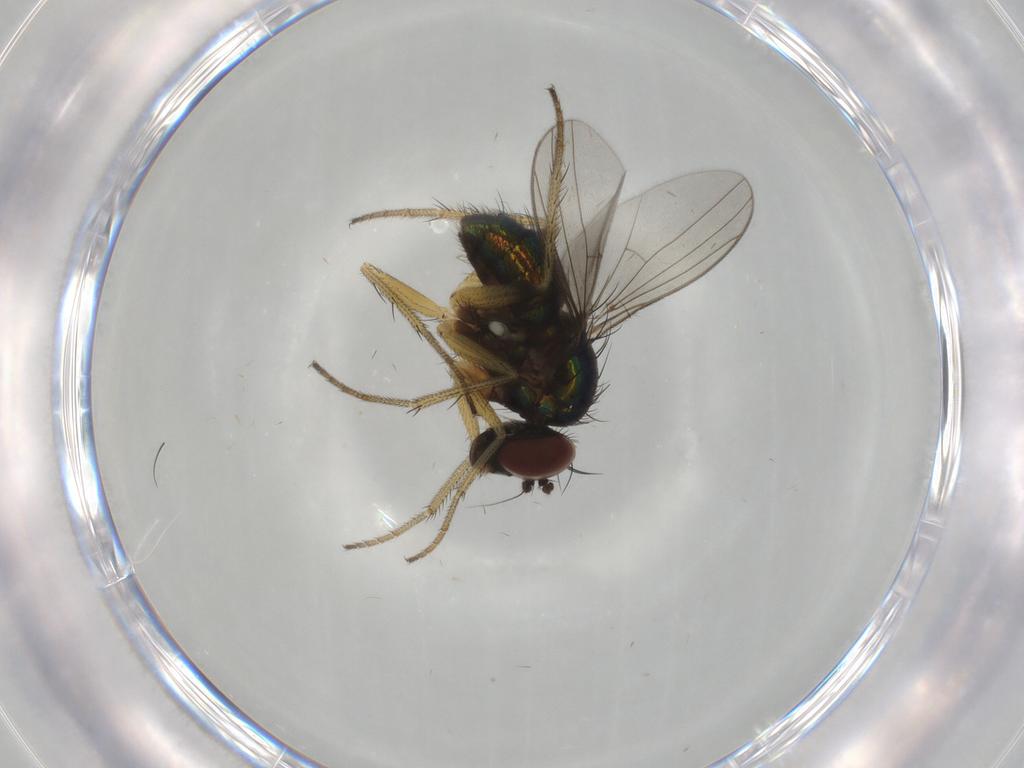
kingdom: Animalia
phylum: Arthropoda
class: Insecta
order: Diptera
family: Dolichopodidae
